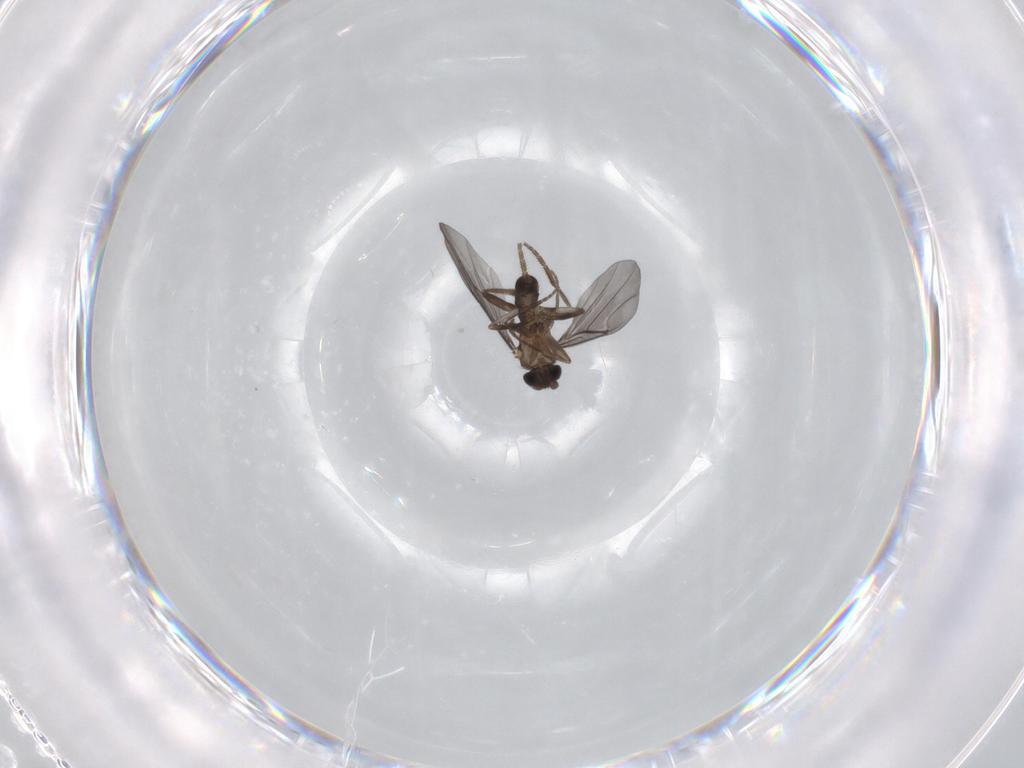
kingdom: Animalia
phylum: Arthropoda
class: Insecta
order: Diptera
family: Phoridae
